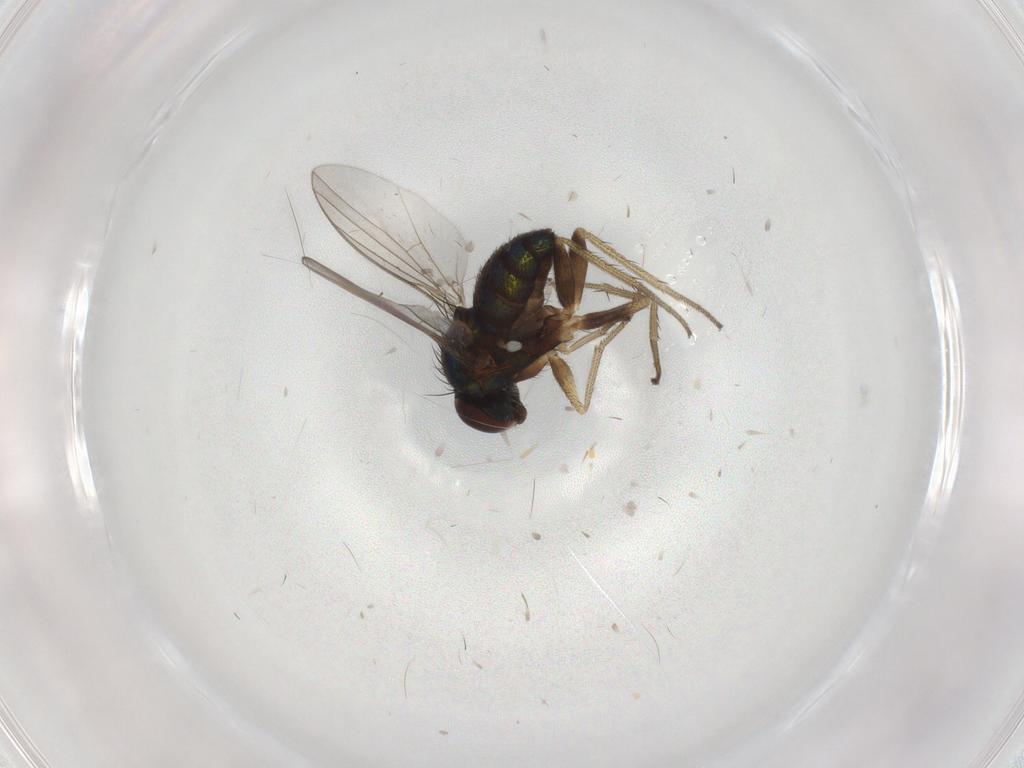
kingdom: Animalia
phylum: Arthropoda
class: Insecta
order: Diptera
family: Dolichopodidae
